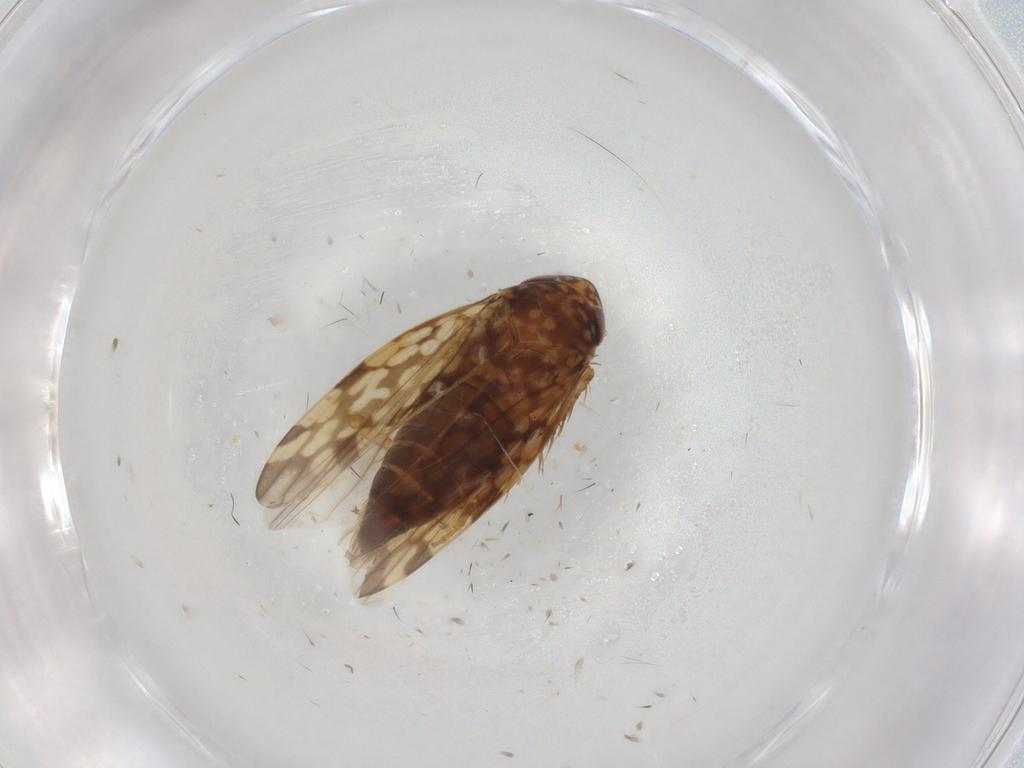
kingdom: Animalia
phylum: Arthropoda
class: Insecta
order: Hemiptera
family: Cicadellidae
